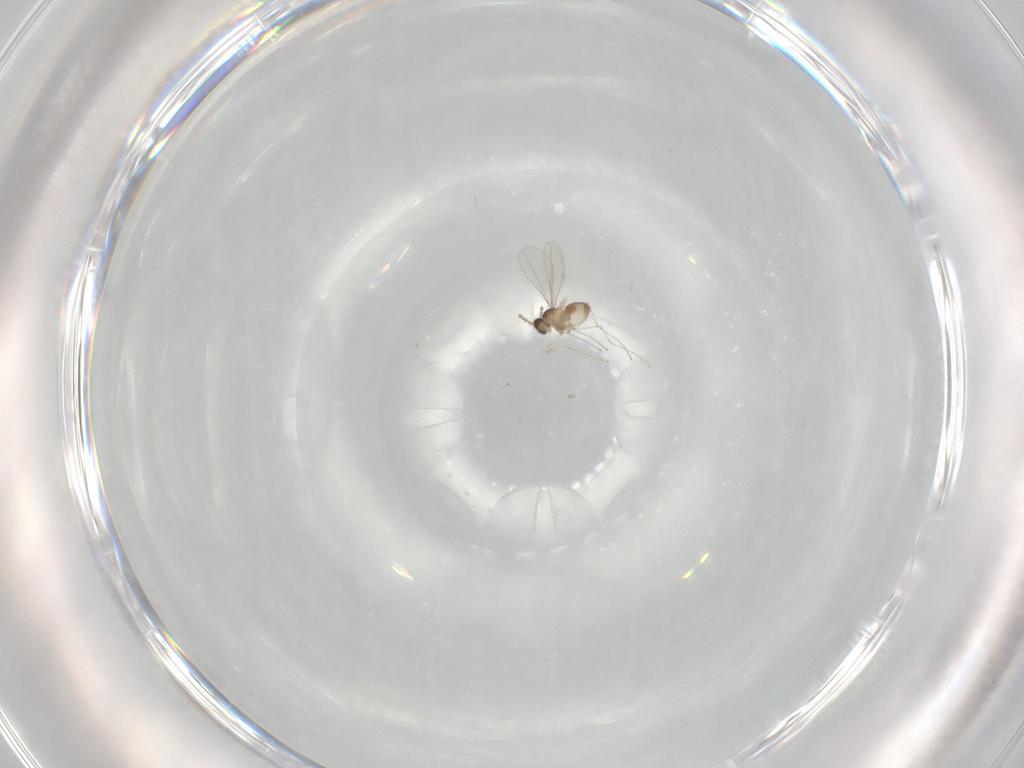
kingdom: Animalia
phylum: Arthropoda
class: Insecta
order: Diptera
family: Cecidomyiidae
